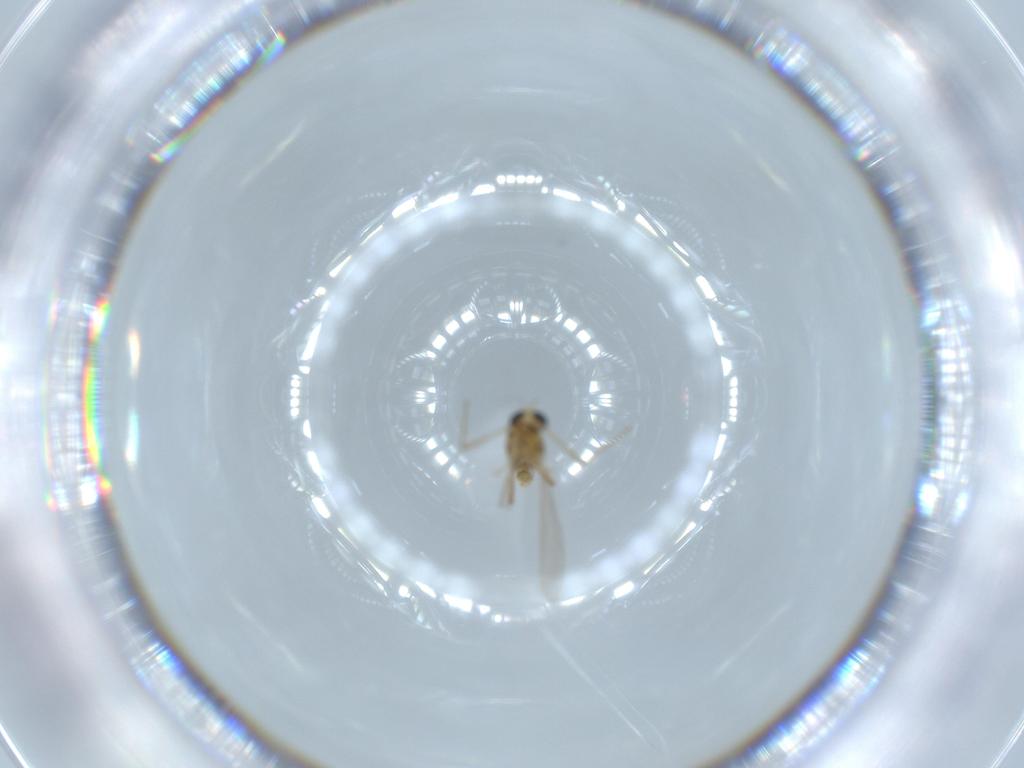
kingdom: Animalia
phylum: Arthropoda
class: Insecta
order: Diptera
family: Chironomidae
